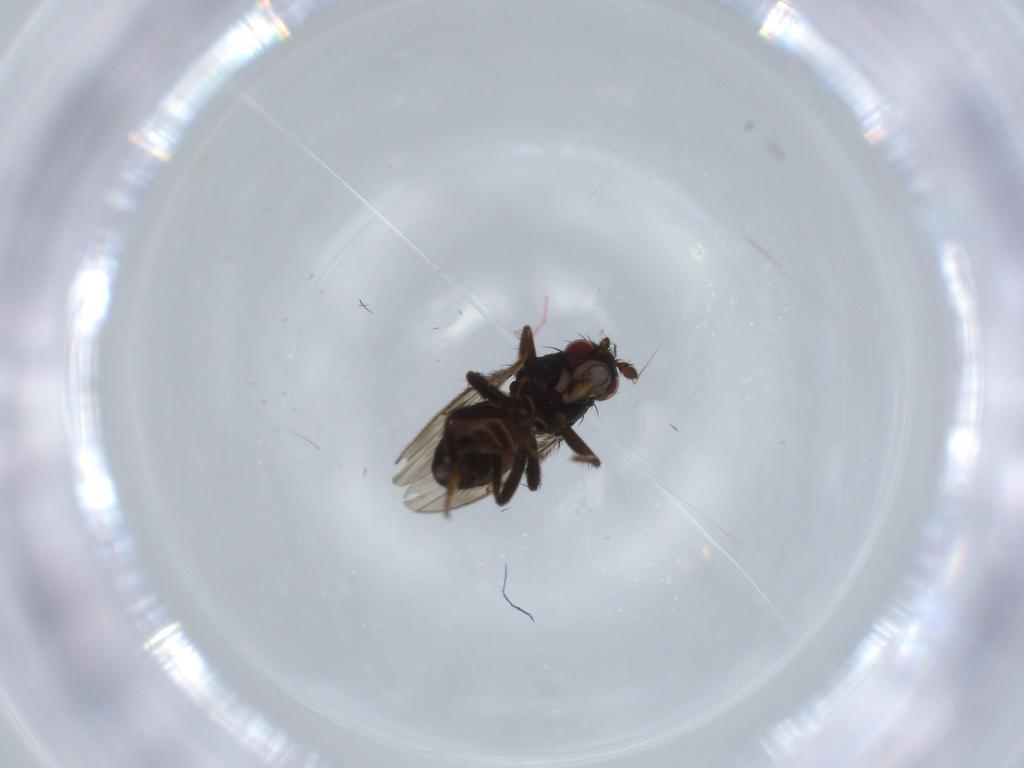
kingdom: Animalia
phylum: Arthropoda
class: Insecta
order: Diptera
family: Sphaeroceridae
